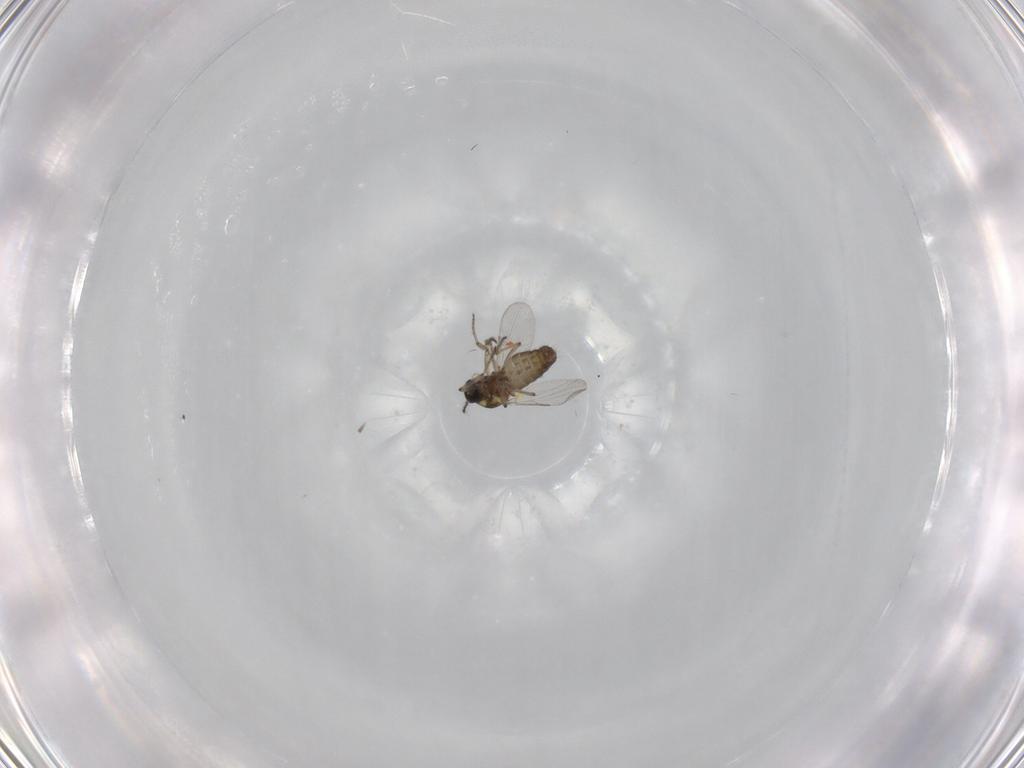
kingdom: Animalia
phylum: Arthropoda
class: Insecta
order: Diptera
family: Ceratopogonidae
